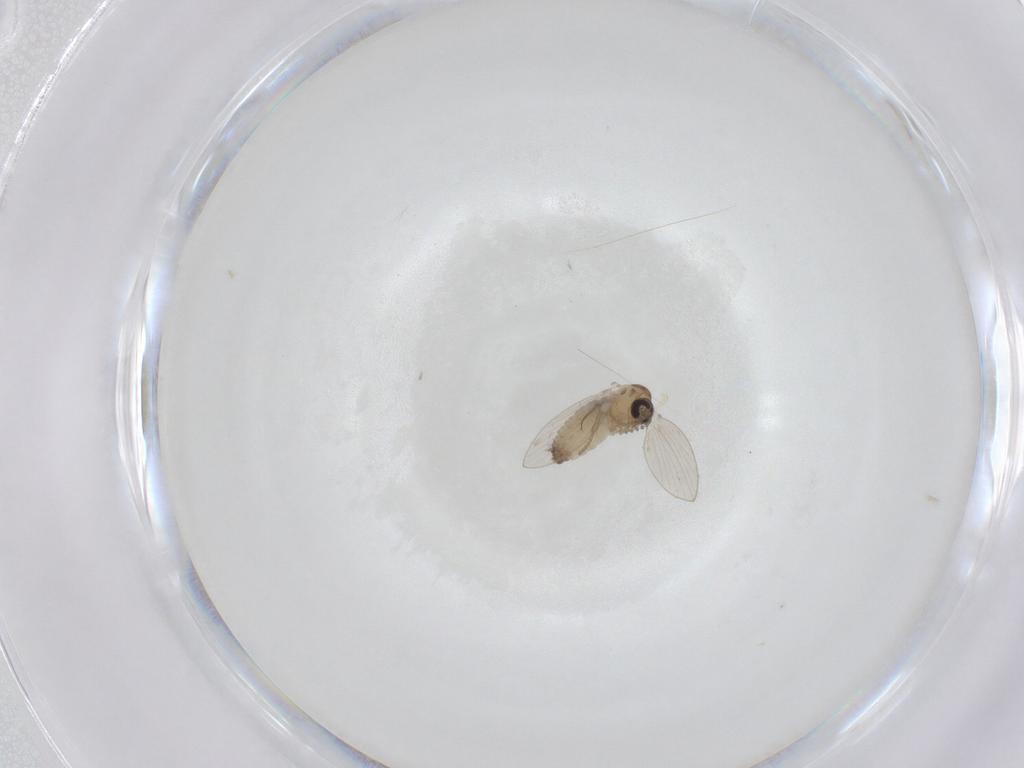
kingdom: Animalia
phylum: Arthropoda
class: Insecta
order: Diptera
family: Psychodidae
